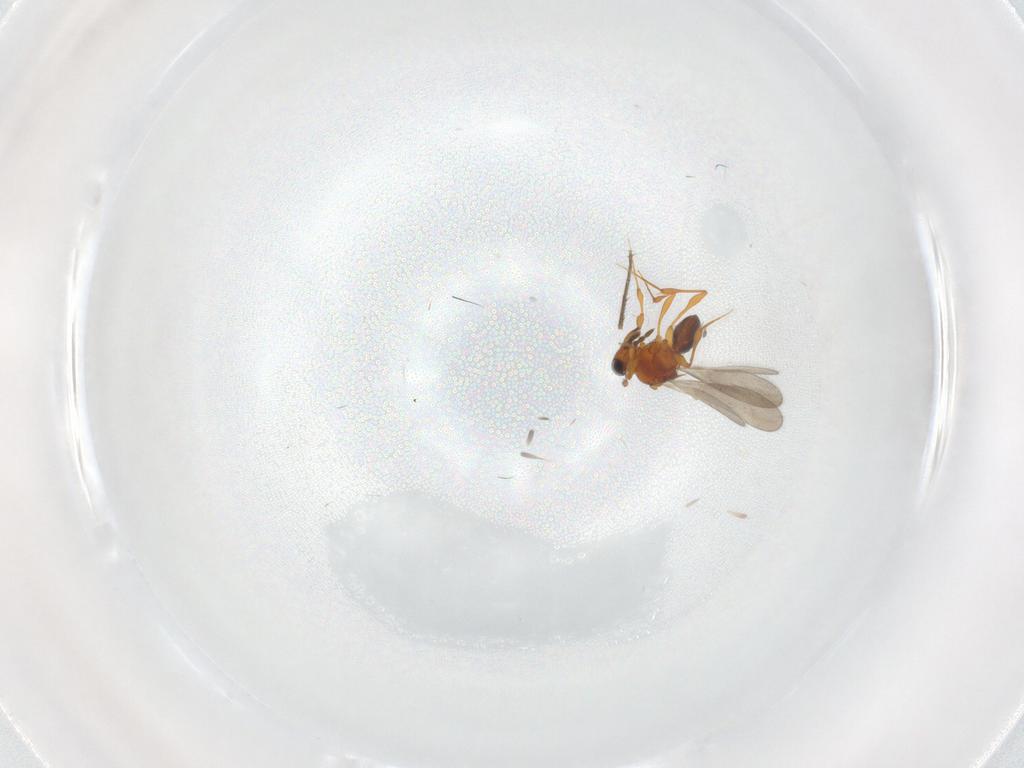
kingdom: Animalia
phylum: Arthropoda
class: Insecta
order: Hymenoptera
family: Platygastridae
